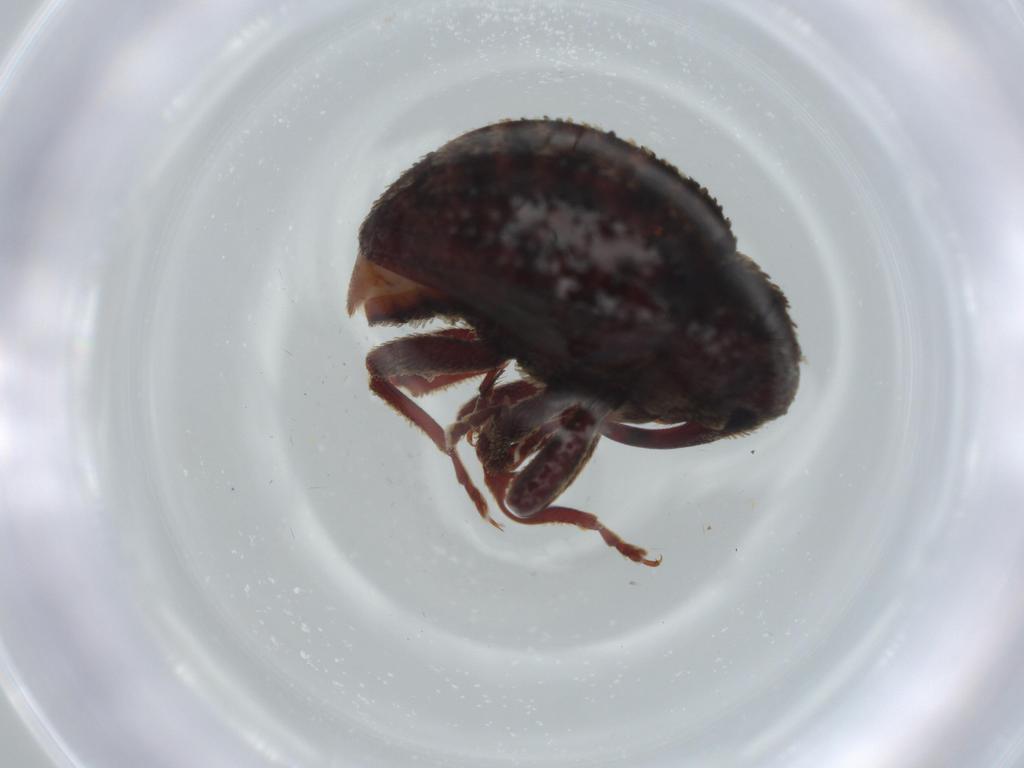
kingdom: Animalia
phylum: Arthropoda
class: Insecta
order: Coleoptera
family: Curculionidae
